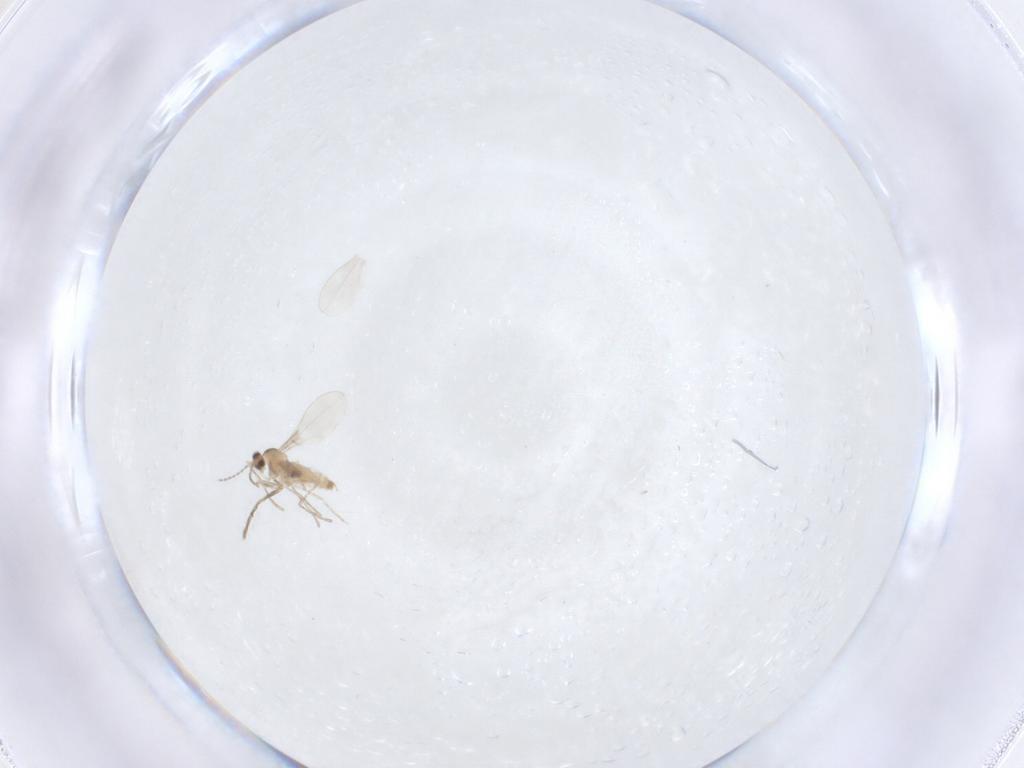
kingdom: Animalia
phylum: Arthropoda
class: Insecta
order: Diptera
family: Cecidomyiidae
